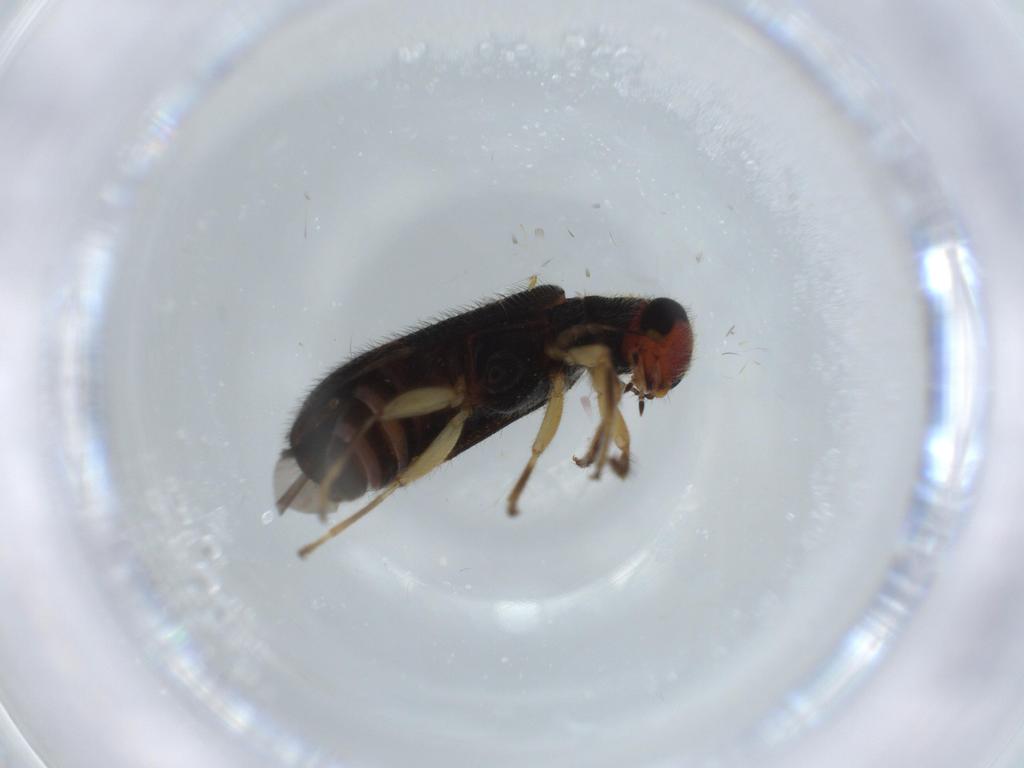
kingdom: Animalia
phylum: Arthropoda
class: Insecta
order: Coleoptera
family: Cleridae
